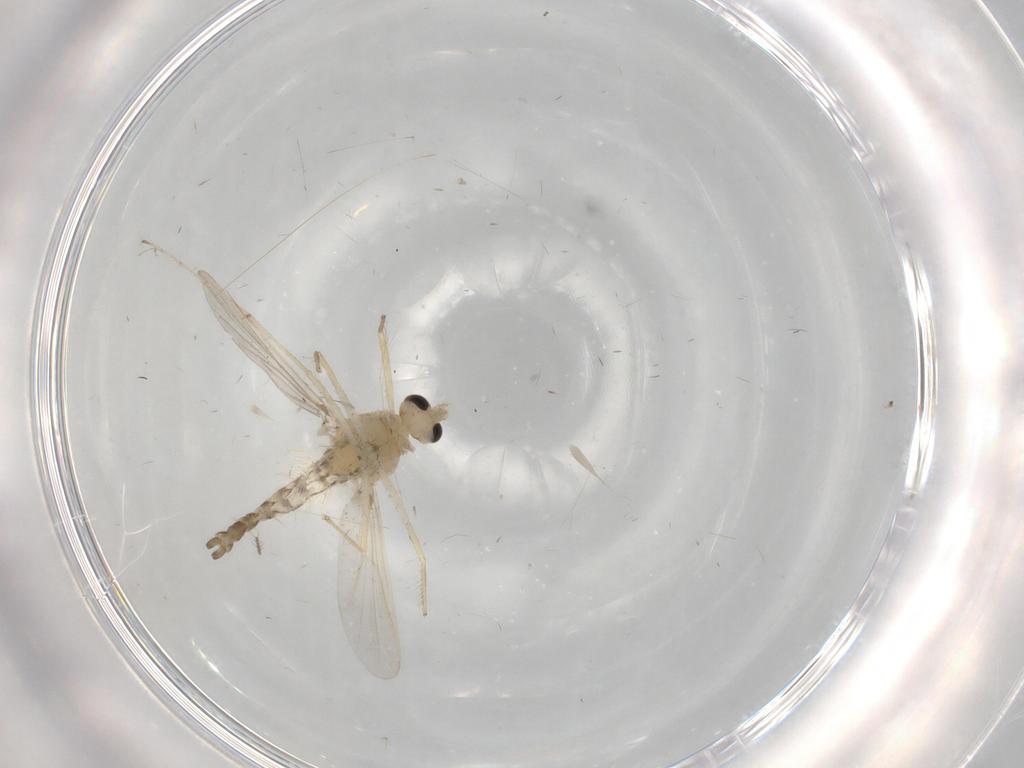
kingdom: Animalia
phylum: Arthropoda
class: Insecta
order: Diptera
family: Chironomidae
